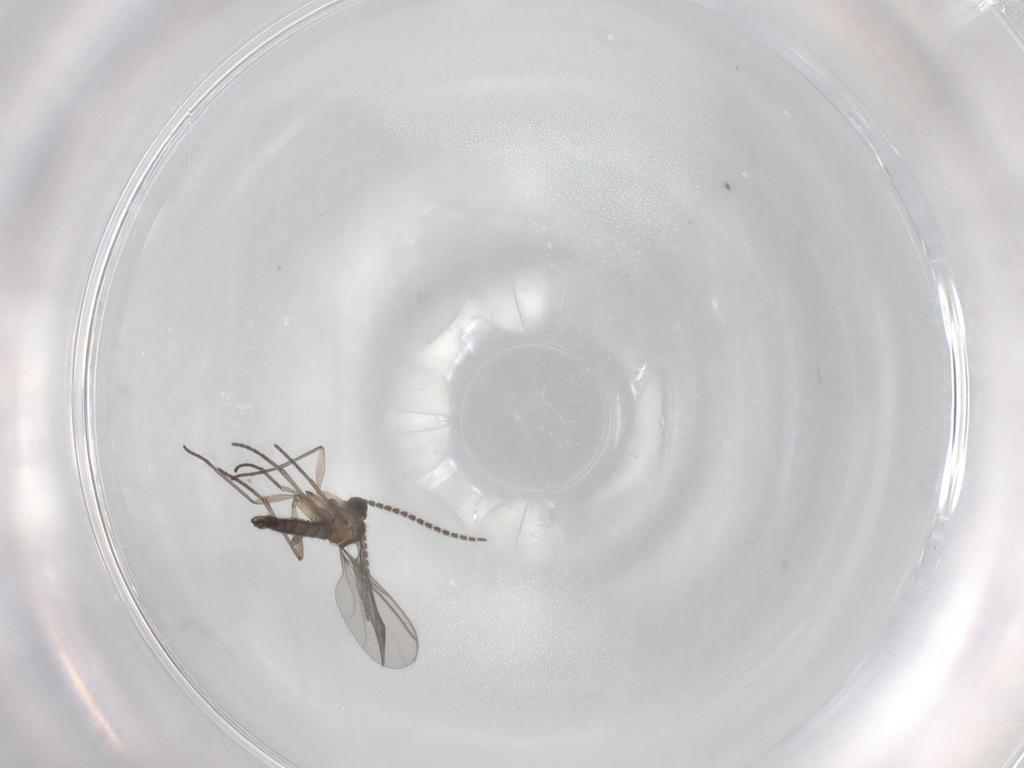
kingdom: Animalia
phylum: Arthropoda
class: Insecta
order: Diptera
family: Muscidae
